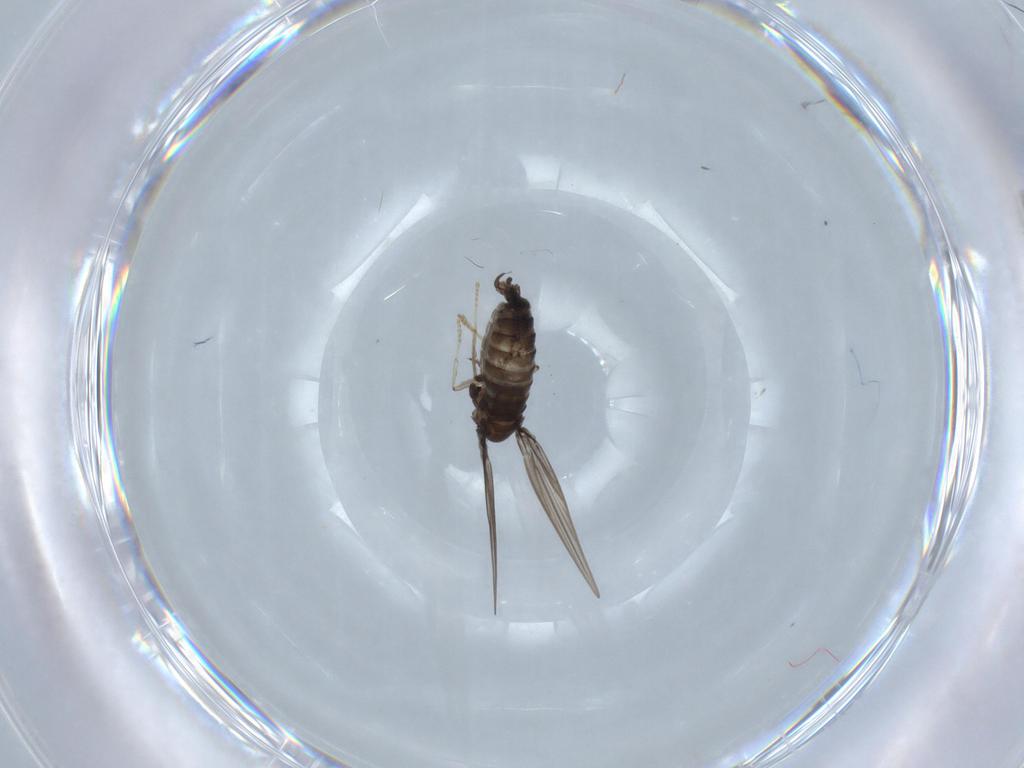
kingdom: Animalia
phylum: Arthropoda
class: Insecta
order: Diptera
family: Psychodidae
